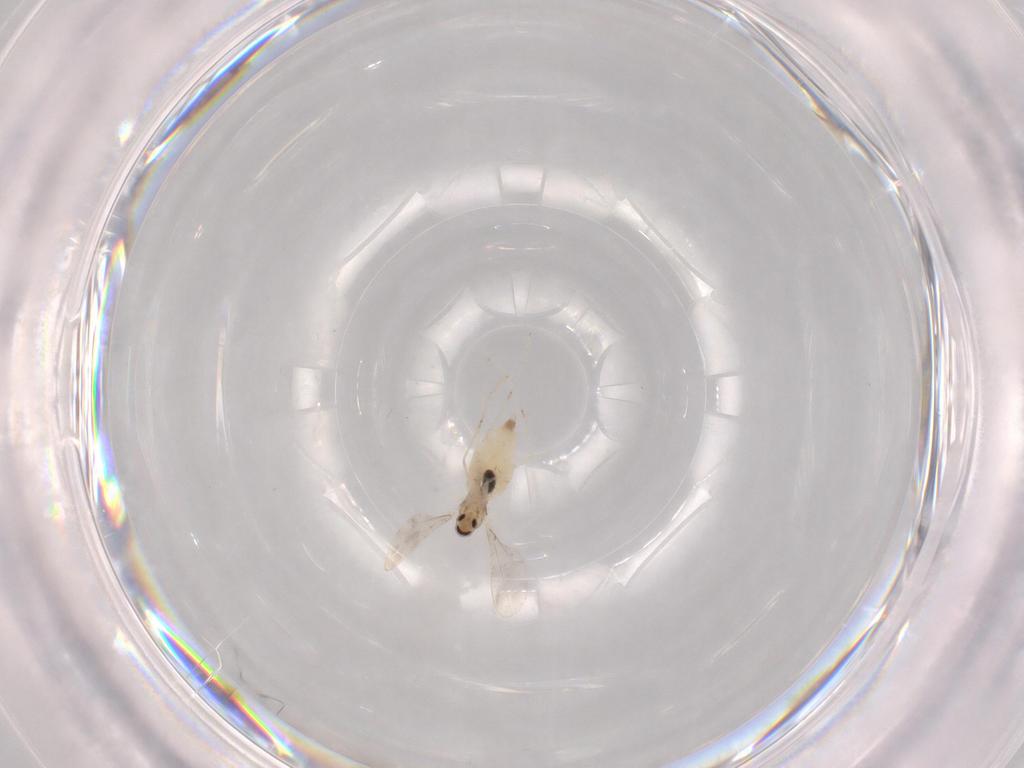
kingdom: Animalia
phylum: Arthropoda
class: Insecta
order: Diptera
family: Cecidomyiidae
